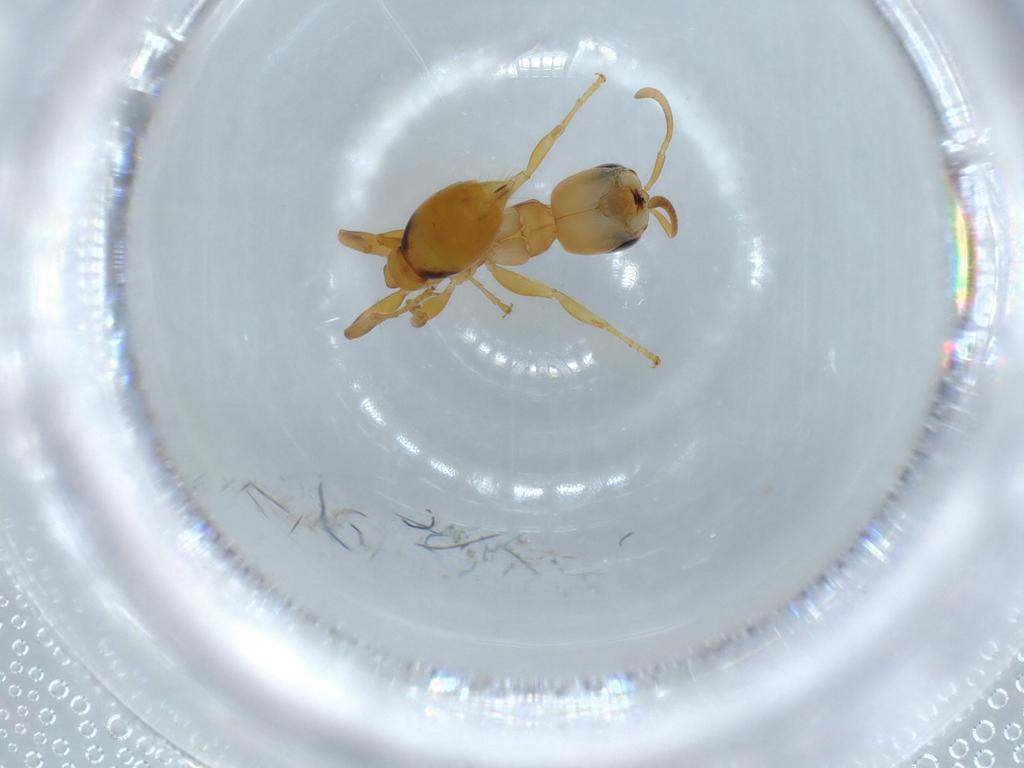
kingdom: Animalia
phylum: Arthropoda
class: Insecta
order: Hymenoptera
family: Formicidae
